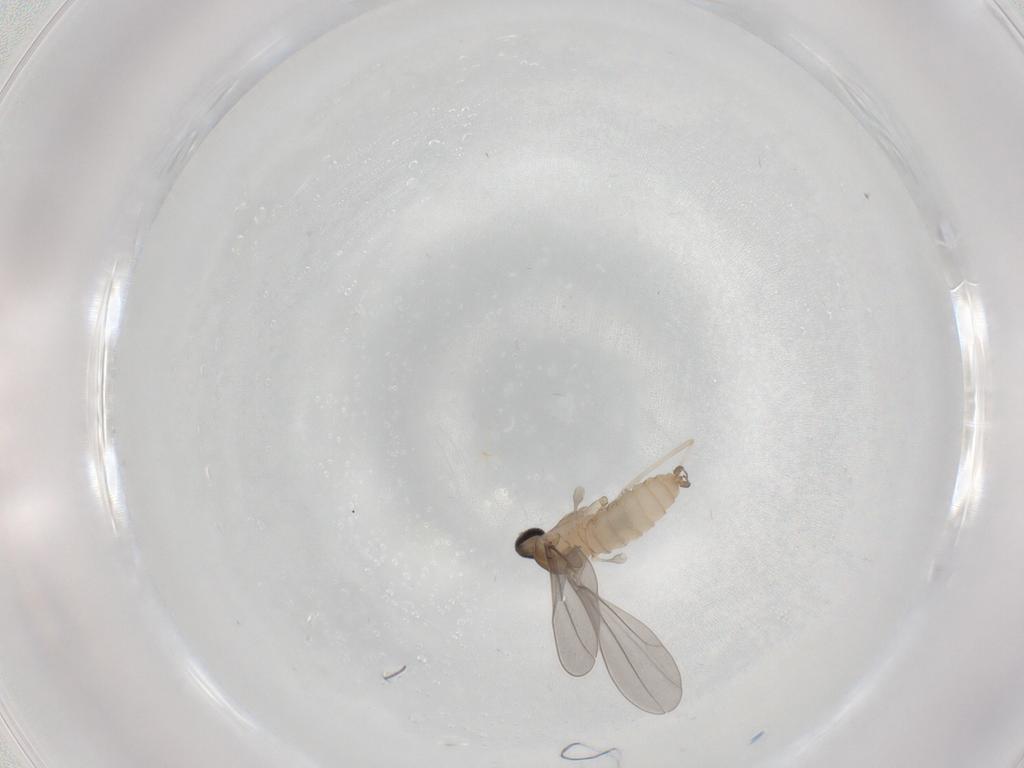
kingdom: Animalia
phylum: Arthropoda
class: Insecta
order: Diptera
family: Cecidomyiidae
